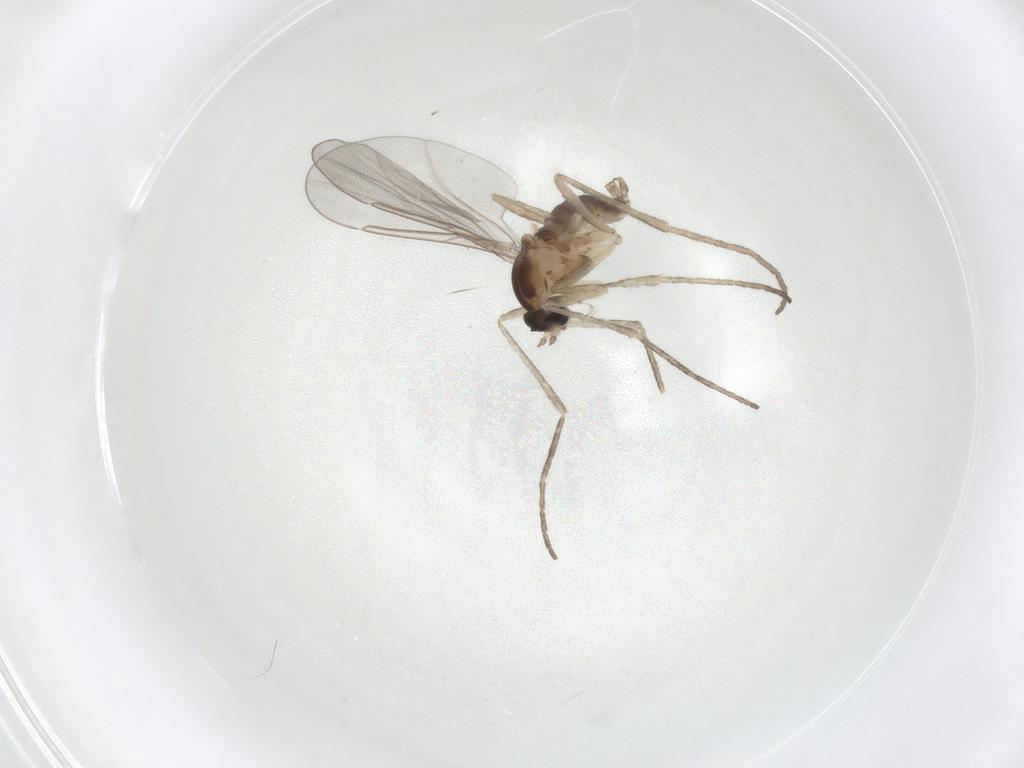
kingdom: Animalia
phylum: Arthropoda
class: Insecta
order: Diptera
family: Cecidomyiidae
